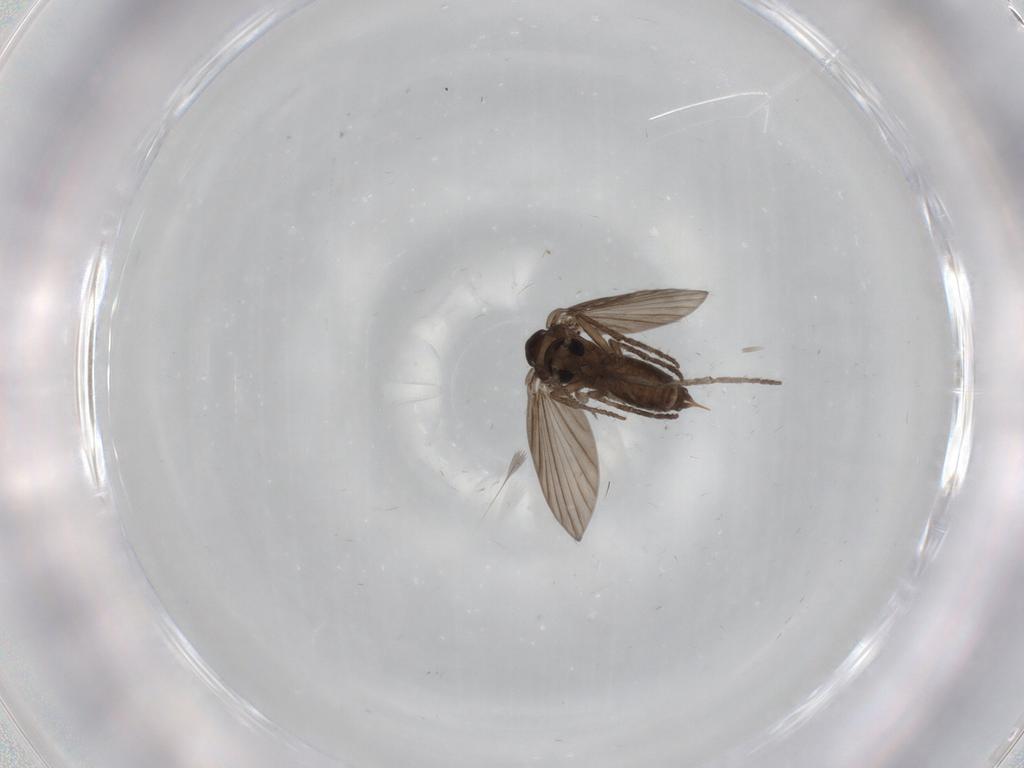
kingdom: Animalia
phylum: Arthropoda
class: Insecta
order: Diptera
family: Psychodidae
